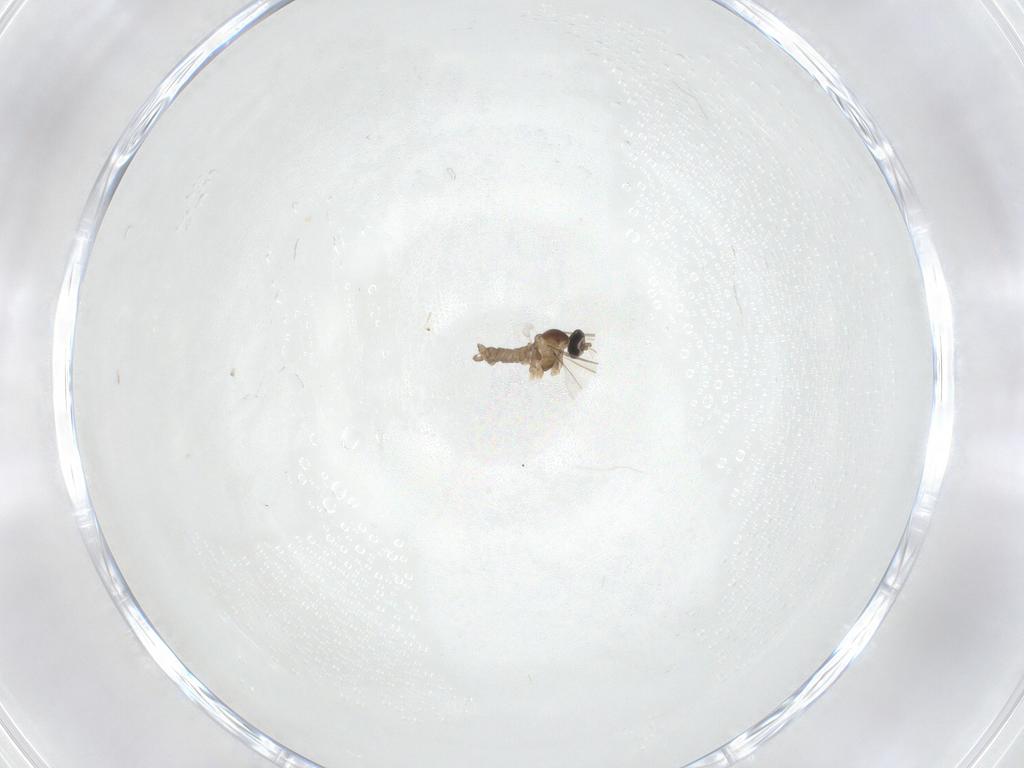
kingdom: Animalia
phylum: Arthropoda
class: Insecta
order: Diptera
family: Cecidomyiidae
